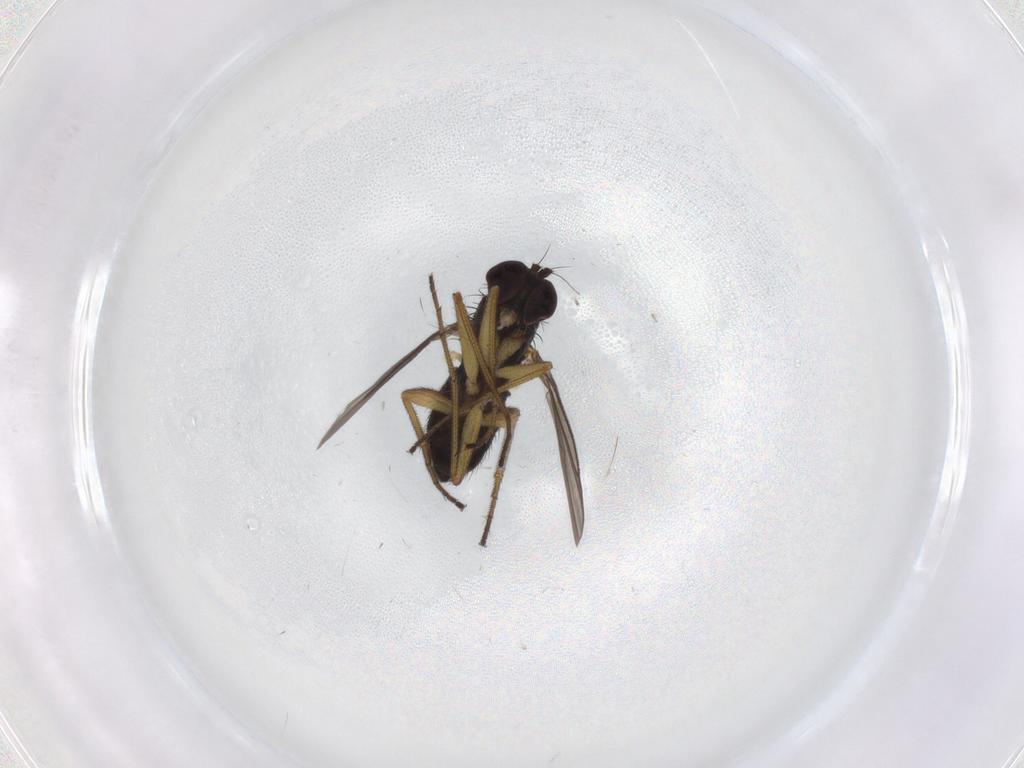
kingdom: Animalia
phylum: Arthropoda
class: Insecta
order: Diptera
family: Dolichopodidae
